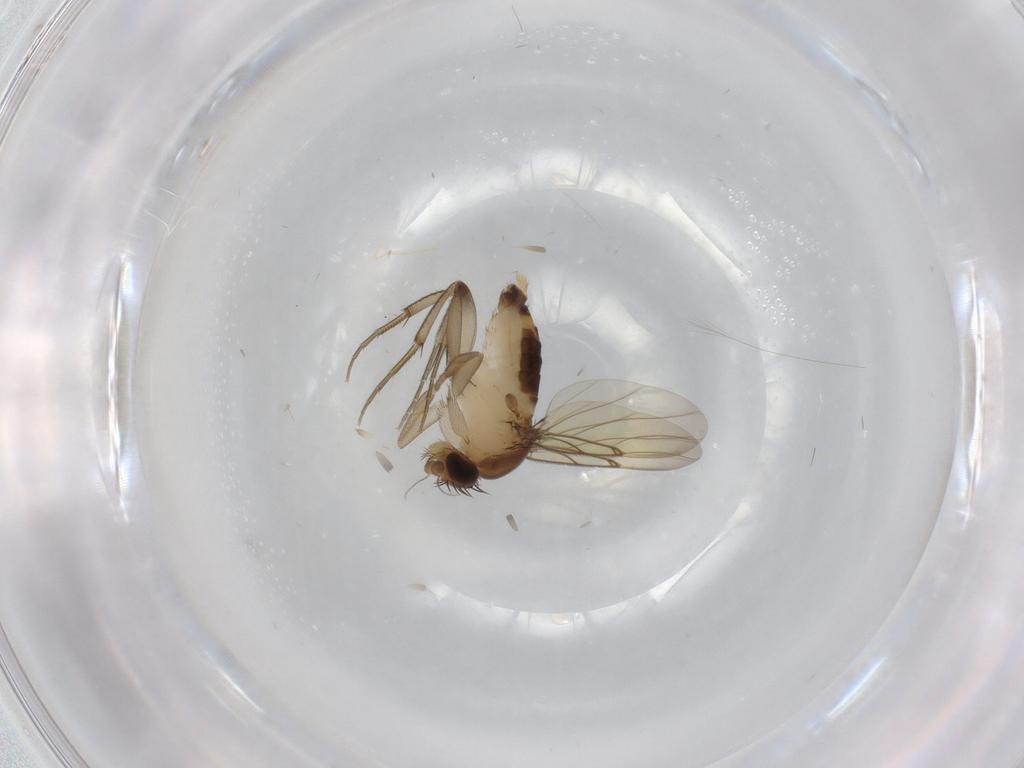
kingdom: Animalia
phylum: Arthropoda
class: Insecta
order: Diptera
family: Phoridae
